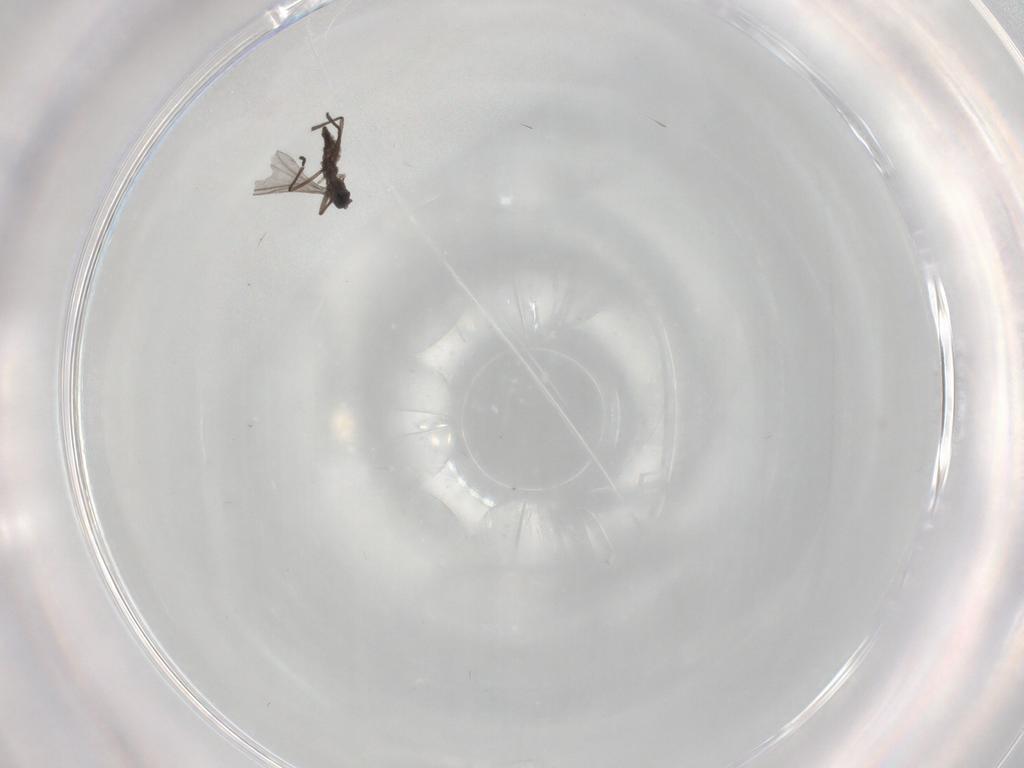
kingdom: Animalia
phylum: Arthropoda
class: Insecta
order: Diptera
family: Sciaridae
